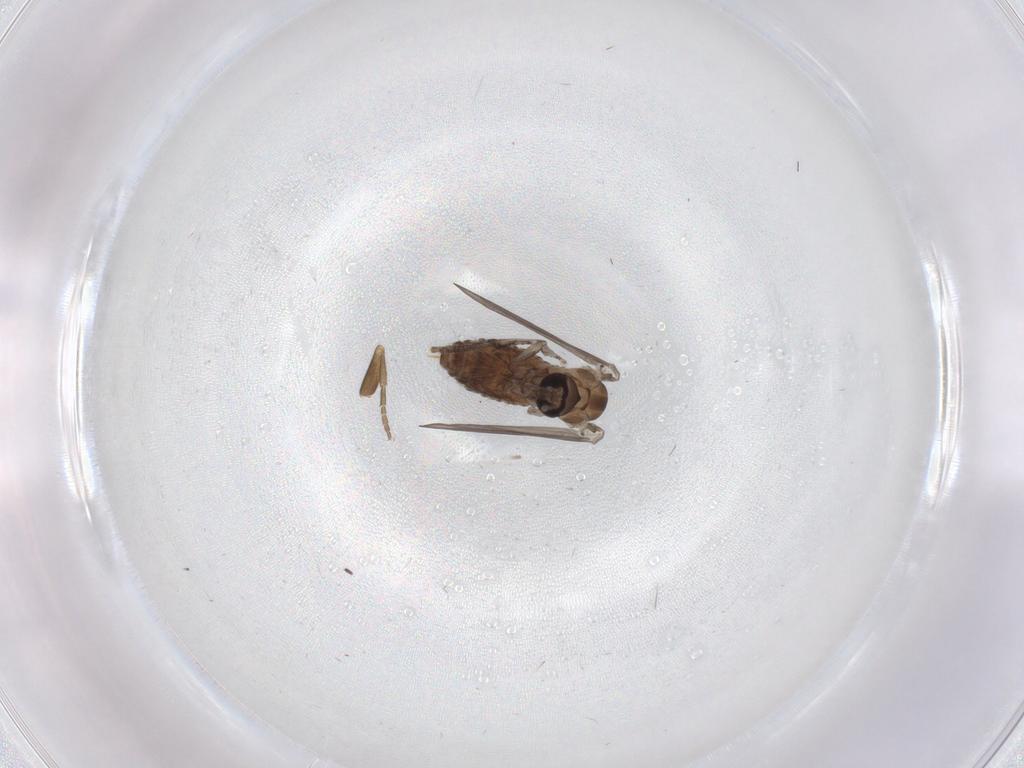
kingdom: Animalia
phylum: Arthropoda
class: Insecta
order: Diptera
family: Psychodidae
